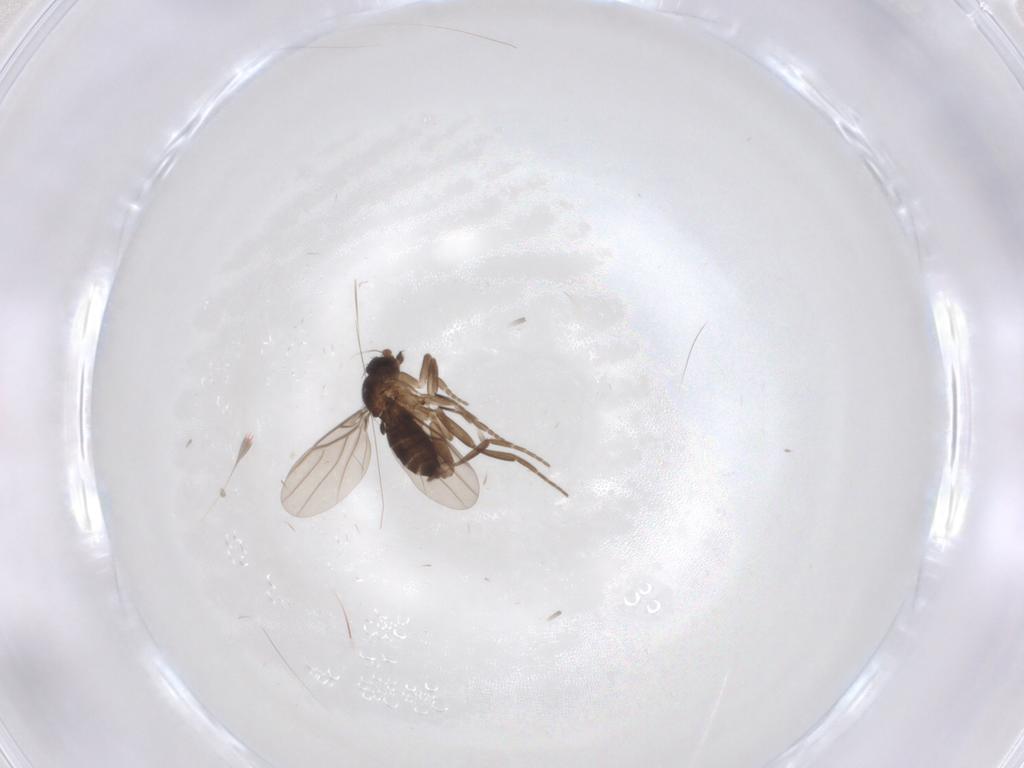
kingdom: Animalia
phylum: Arthropoda
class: Insecta
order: Diptera
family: Phoridae
